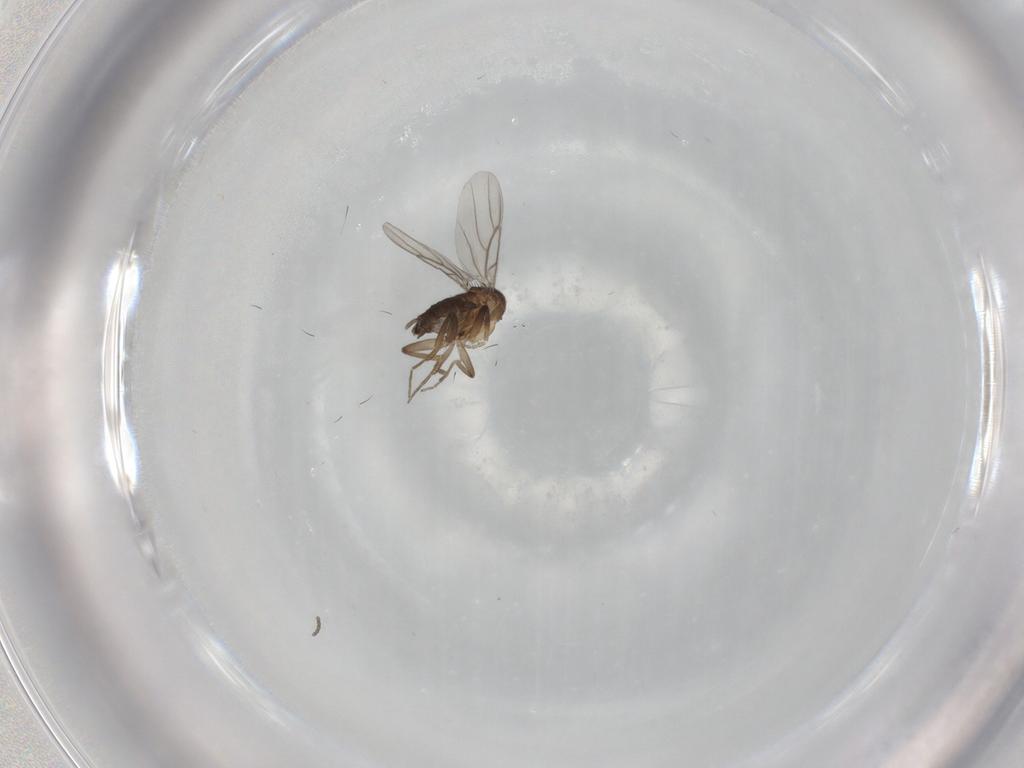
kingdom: Animalia
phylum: Arthropoda
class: Insecta
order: Diptera
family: Phoridae
